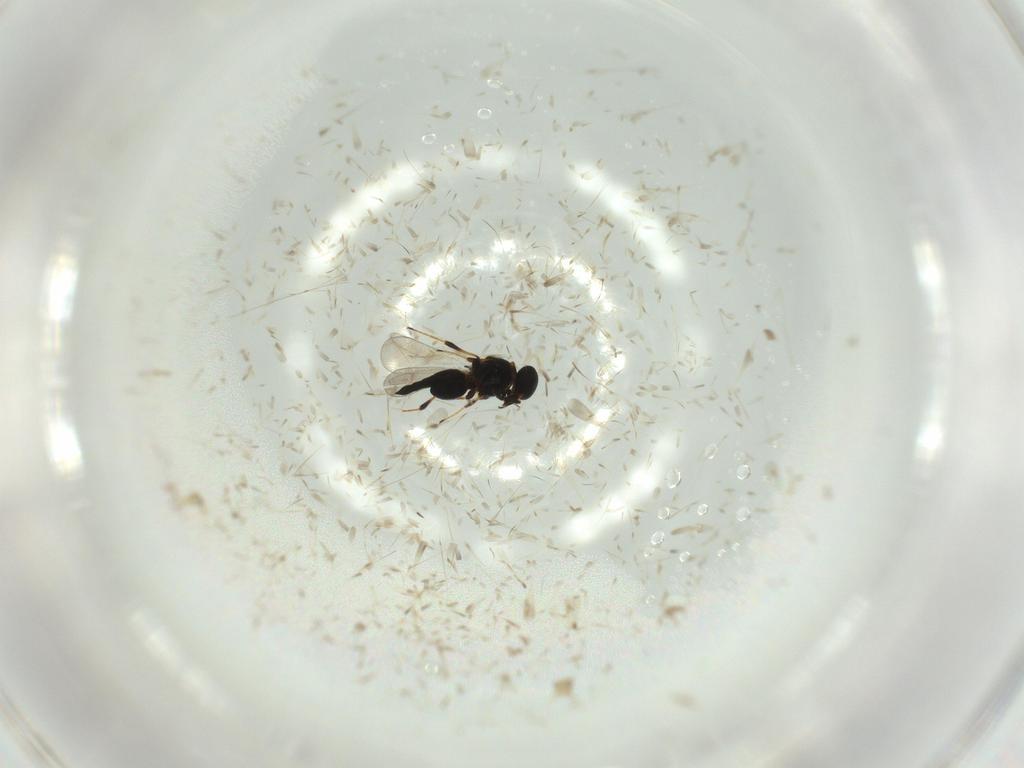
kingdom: Animalia
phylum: Arthropoda
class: Insecta
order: Hymenoptera
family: Platygastridae
